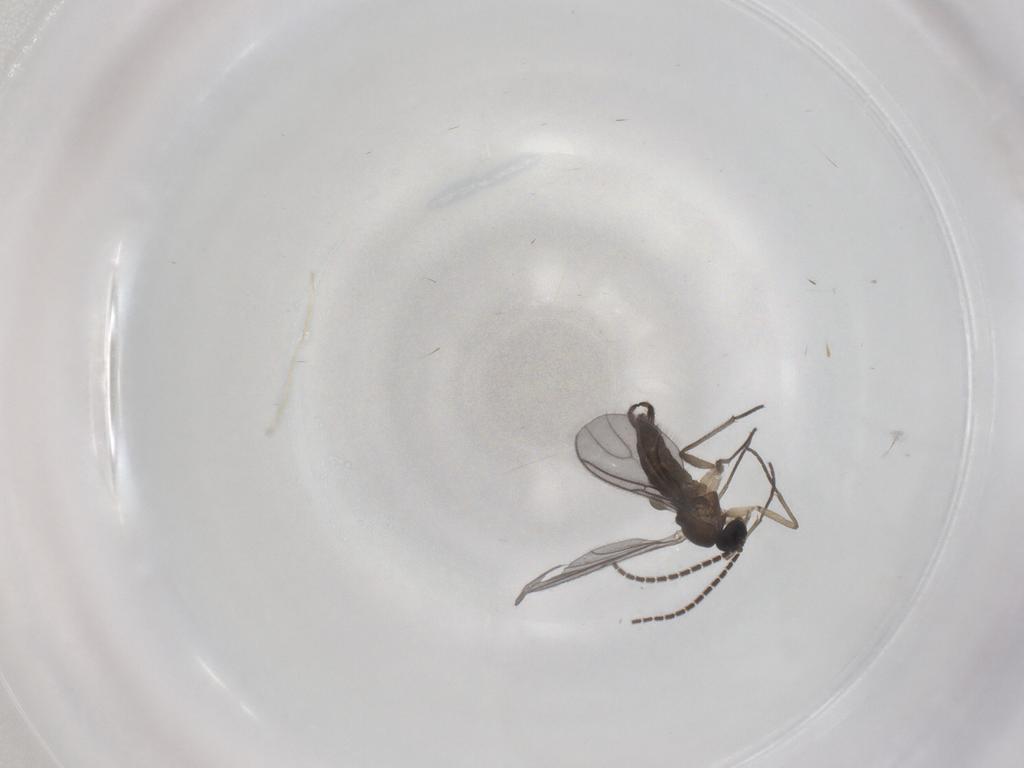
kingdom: Animalia
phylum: Arthropoda
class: Insecta
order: Diptera
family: Sciaridae
